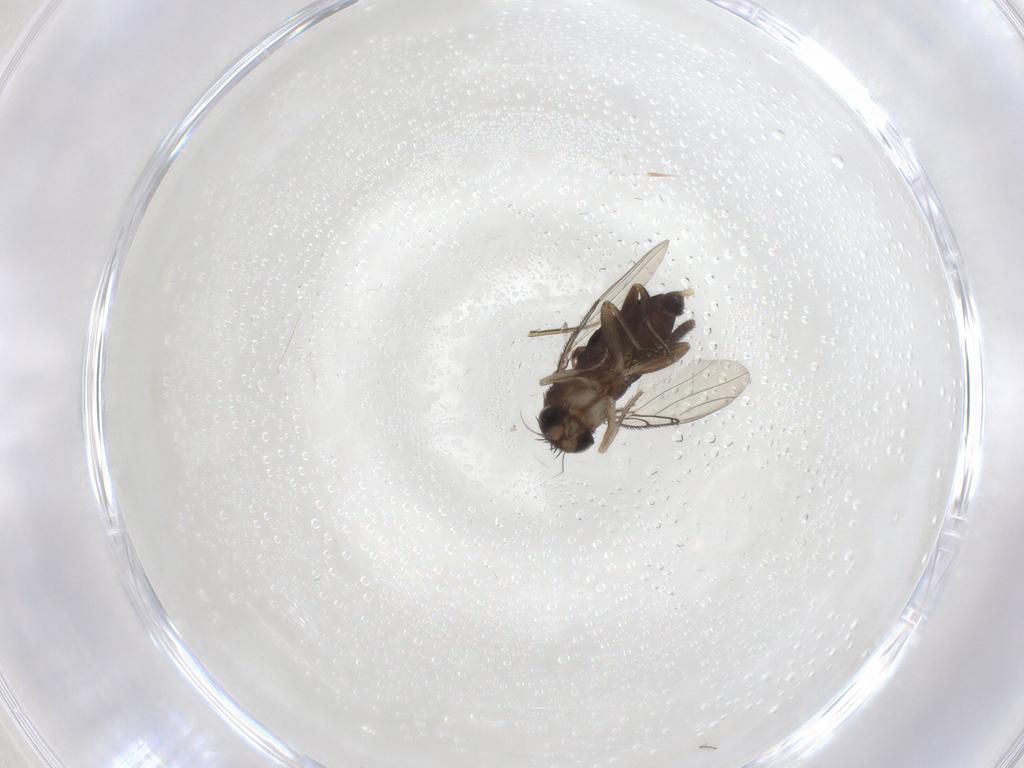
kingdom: Animalia
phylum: Arthropoda
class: Insecta
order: Diptera
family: Phoridae
